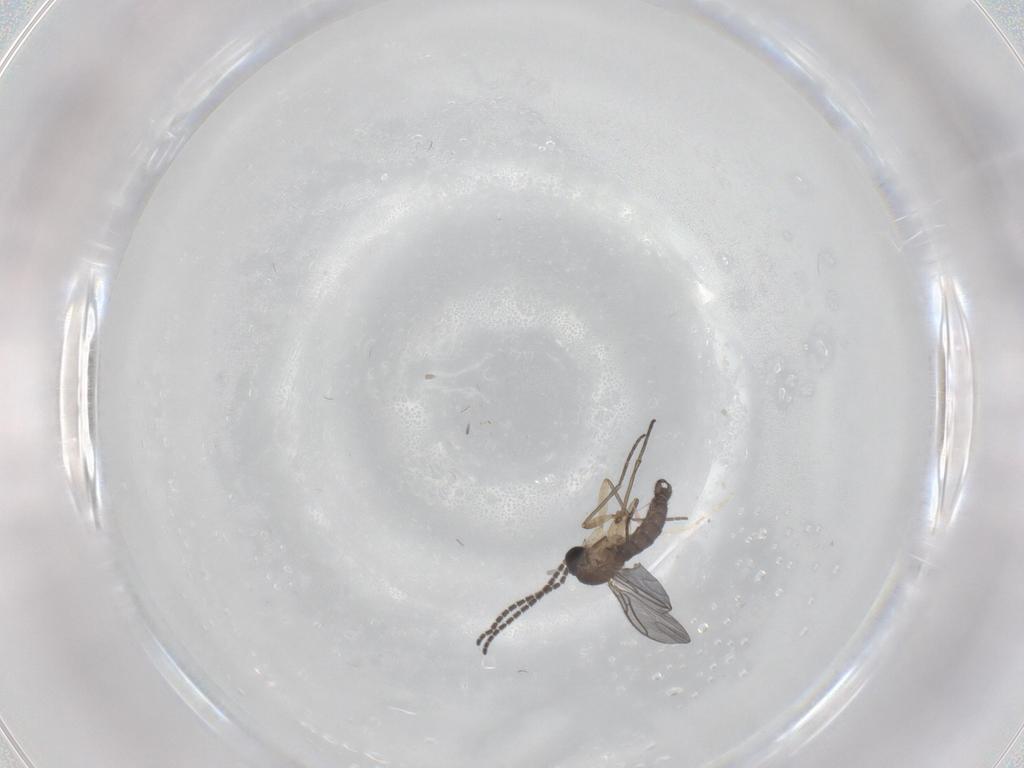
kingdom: Animalia
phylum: Arthropoda
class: Insecta
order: Diptera
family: Sciaridae
